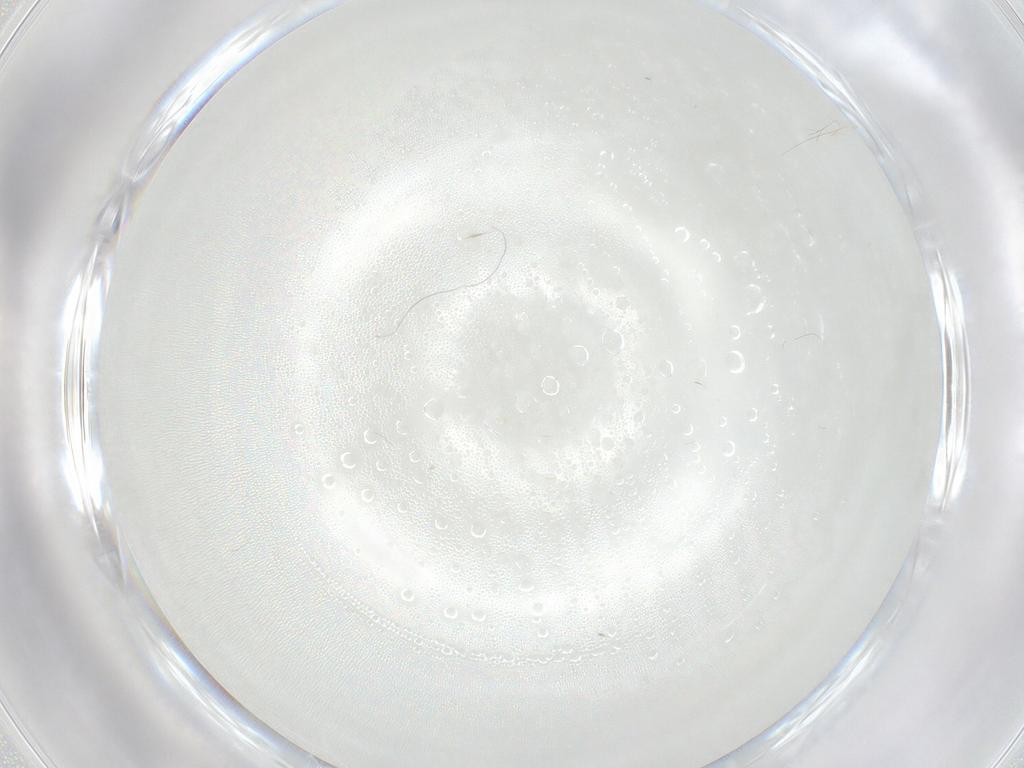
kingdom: Animalia
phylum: Arthropoda
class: Insecta
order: Diptera
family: Cecidomyiidae
